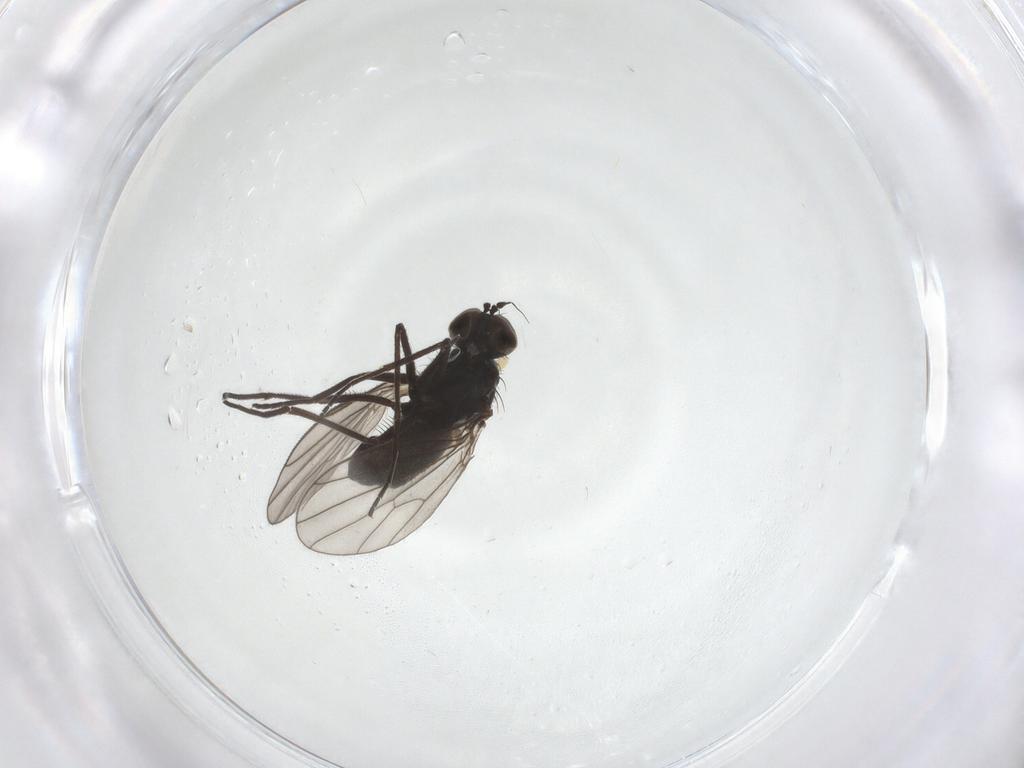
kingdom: Animalia
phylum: Arthropoda
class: Insecta
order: Diptera
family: Dolichopodidae
